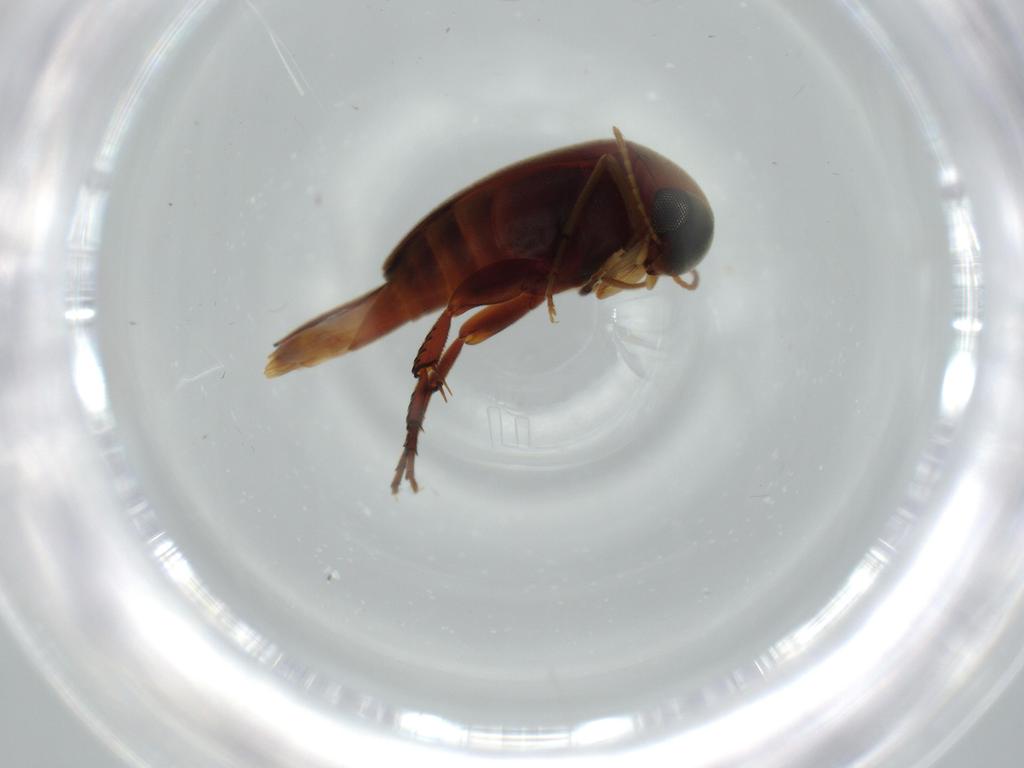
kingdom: Animalia
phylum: Arthropoda
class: Insecta
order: Coleoptera
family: Mordellidae
